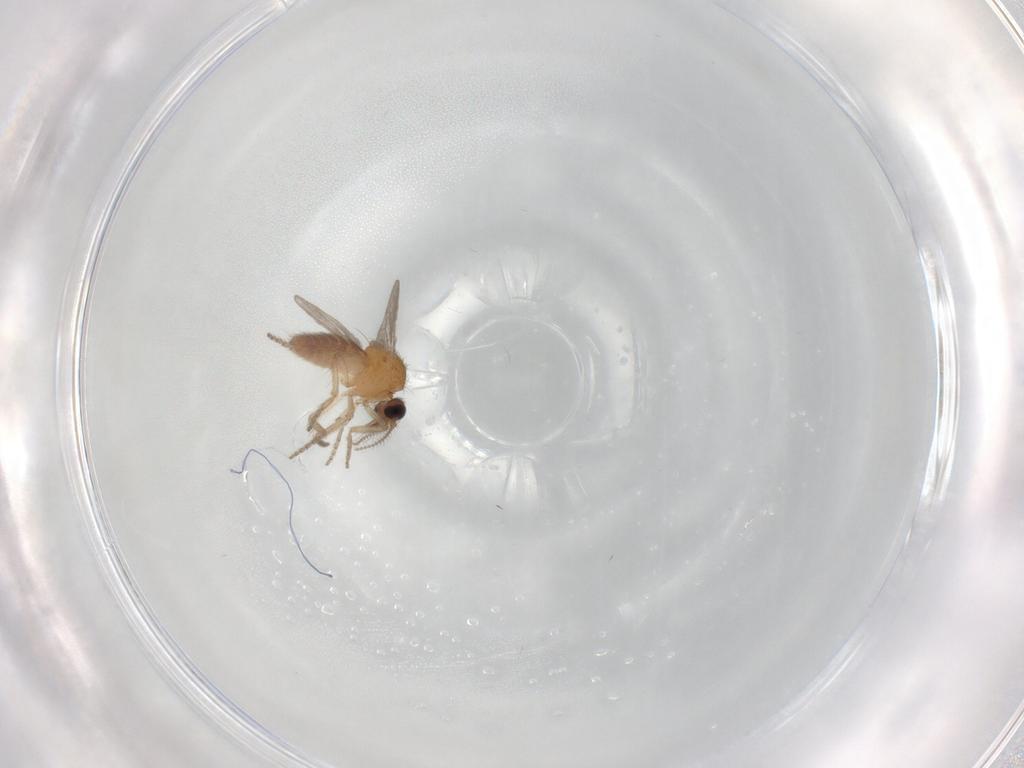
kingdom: Animalia
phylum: Arthropoda
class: Insecta
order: Diptera
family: Ceratopogonidae
